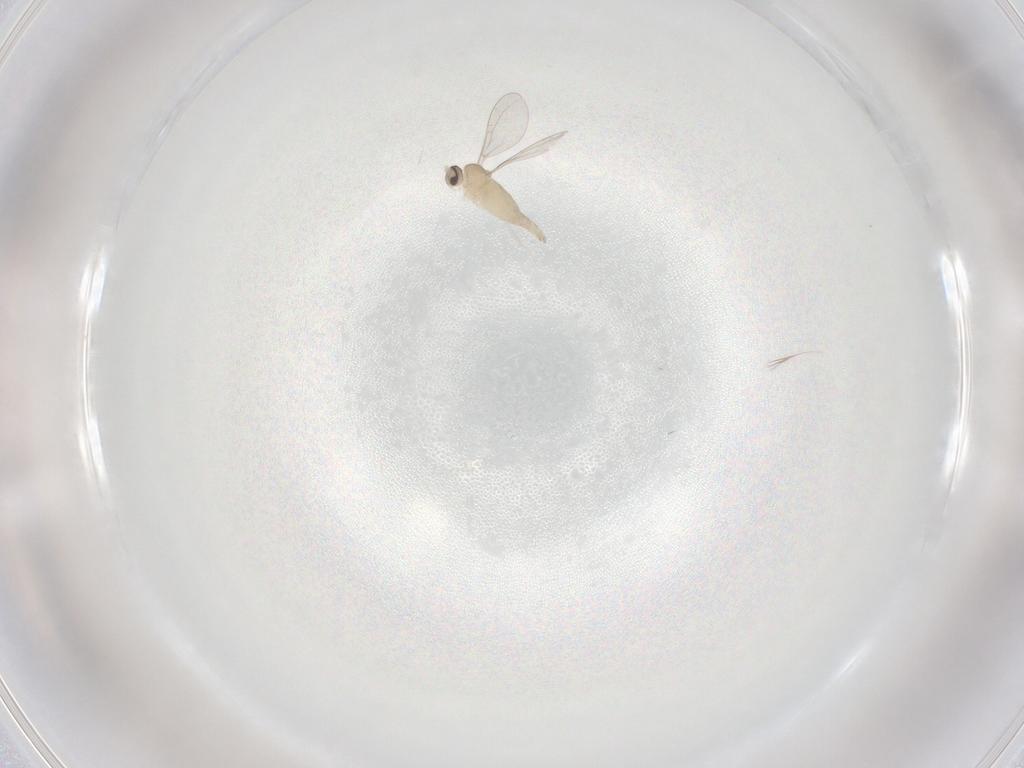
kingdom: Animalia
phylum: Arthropoda
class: Insecta
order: Diptera
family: Cecidomyiidae
